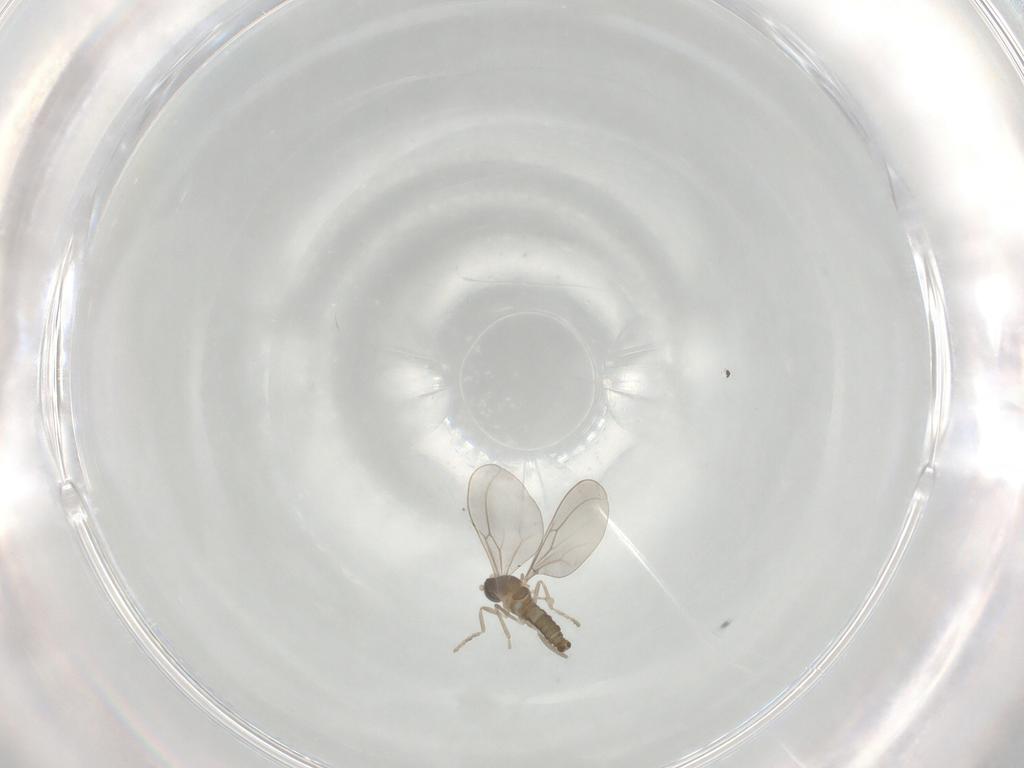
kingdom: Animalia
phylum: Arthropoda
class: Insecta
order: Diptera
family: Cecidomyiidae
